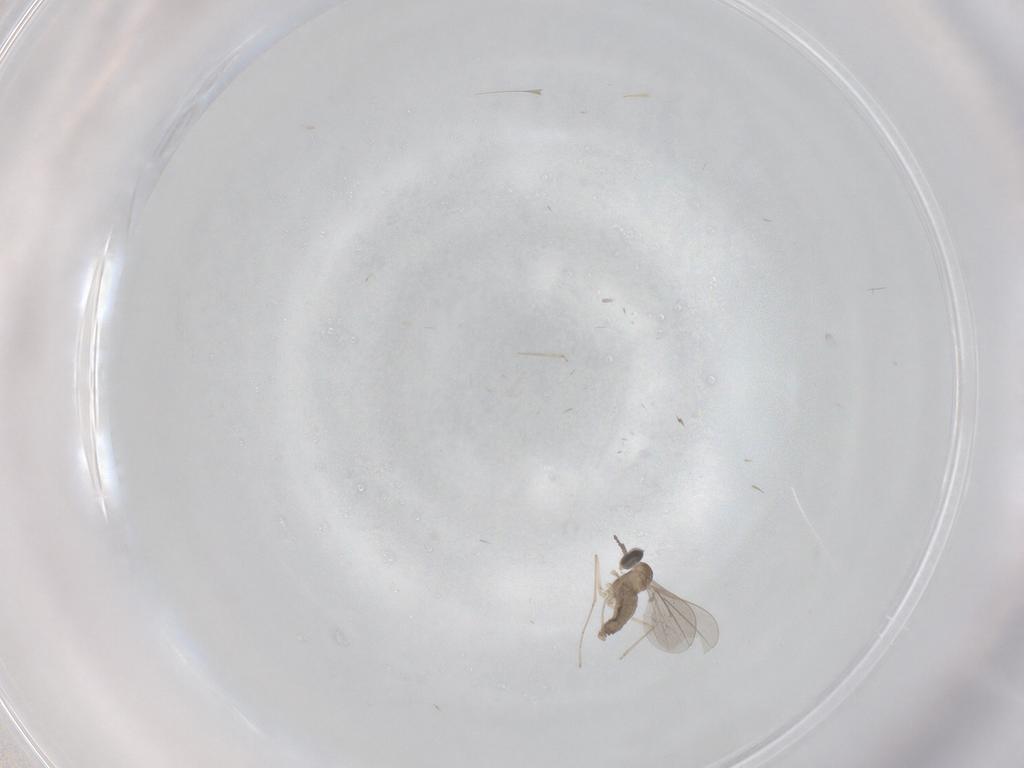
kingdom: Animalia
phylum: Arthropoda
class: Insecta
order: Diptera
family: Cecidomyiidae
